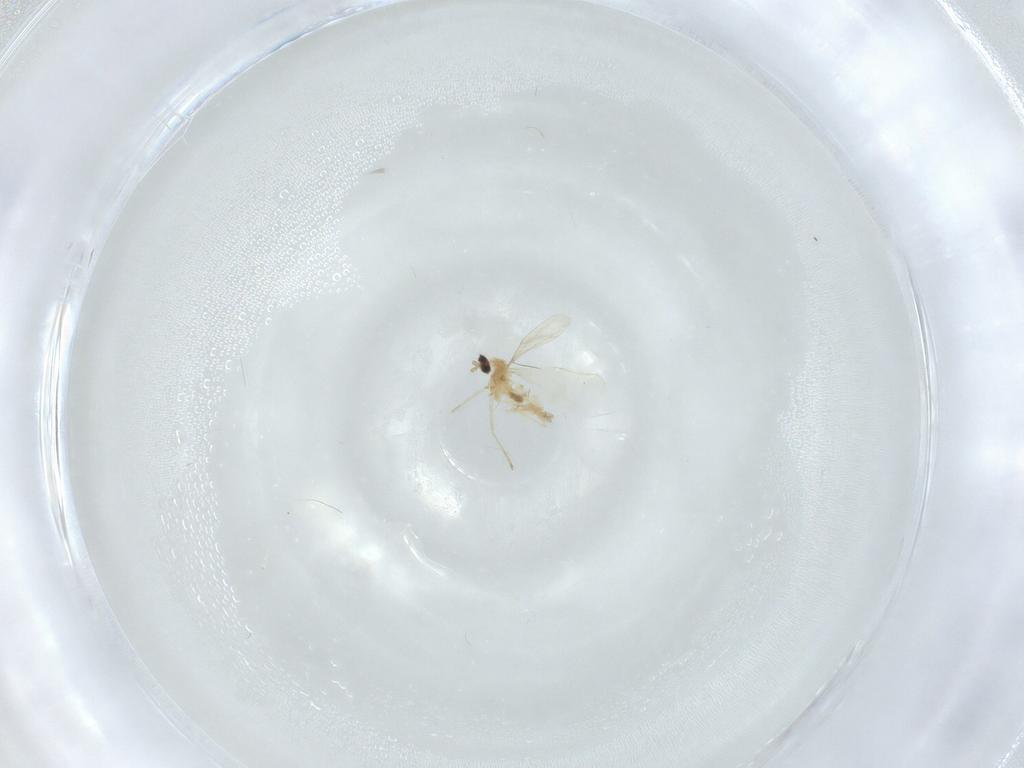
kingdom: Animalia
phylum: Arthropoda
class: Insecta
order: Diptera
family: Cecidomyiidae
